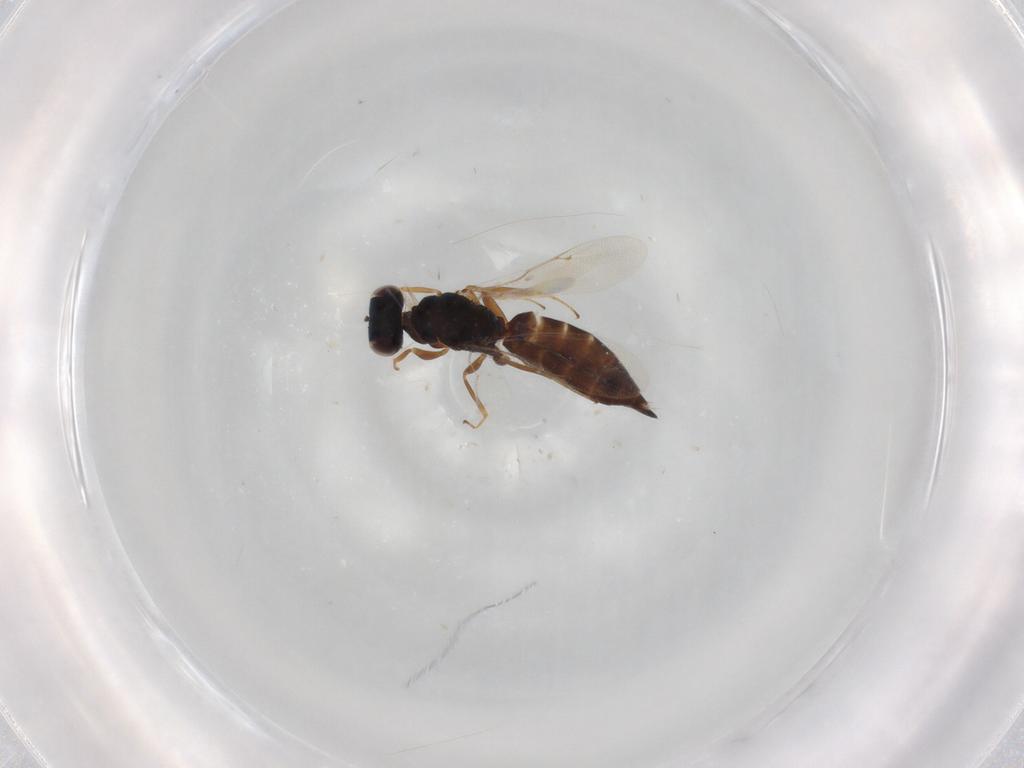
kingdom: Animalia
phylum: Arthropoda
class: Insecta
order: Hymenoptera
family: Pteromalidae
